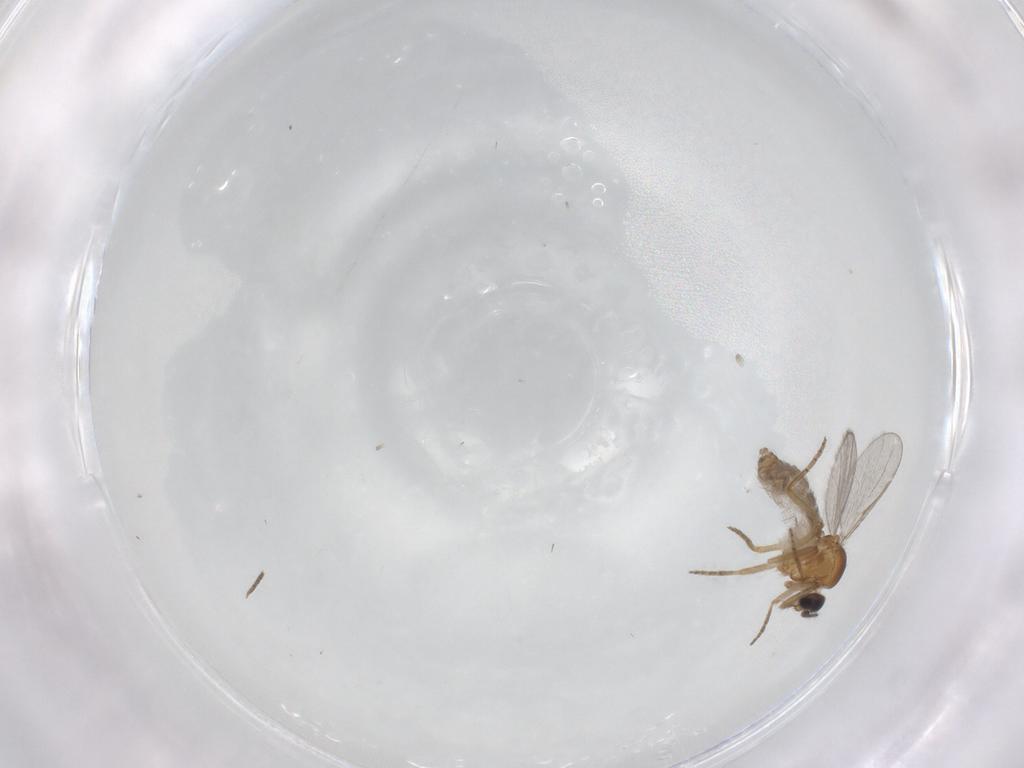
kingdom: Animalia
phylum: Arthropoda
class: Insecta
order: Diptera
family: Ceratopogonidae
